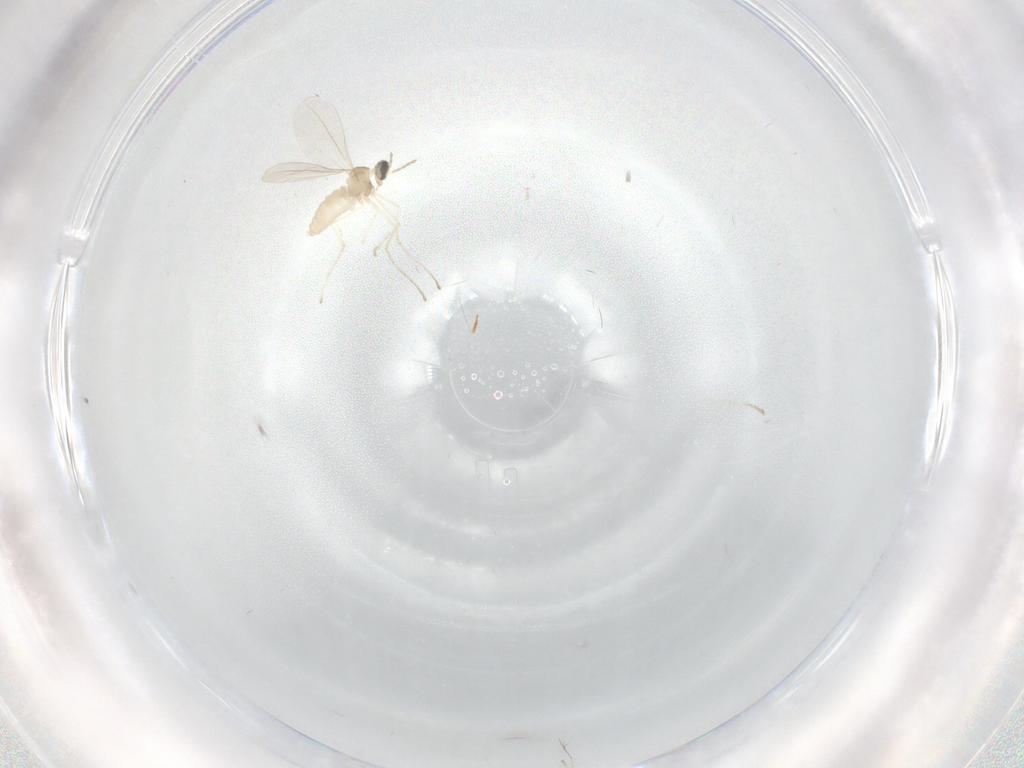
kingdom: Animalia
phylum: Arthropoda
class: Insecta
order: Diptera
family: Cecidomyiidae
